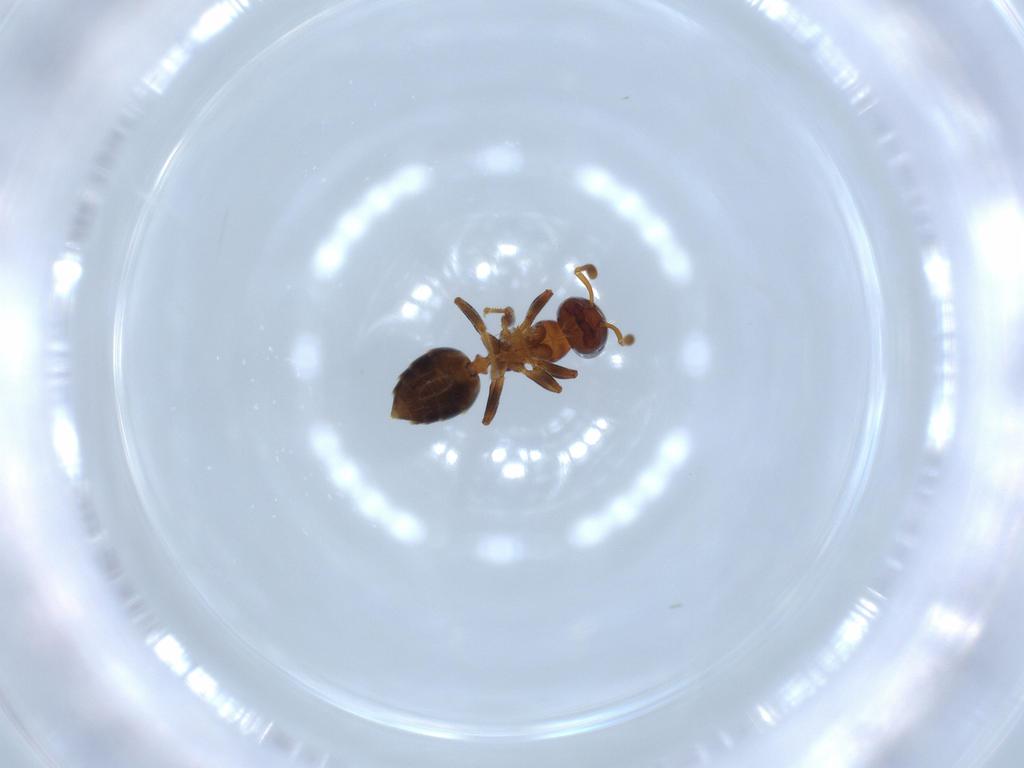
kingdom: Animalia
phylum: Arthropoda
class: Insecta
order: Hymenoptera
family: Formicidae
